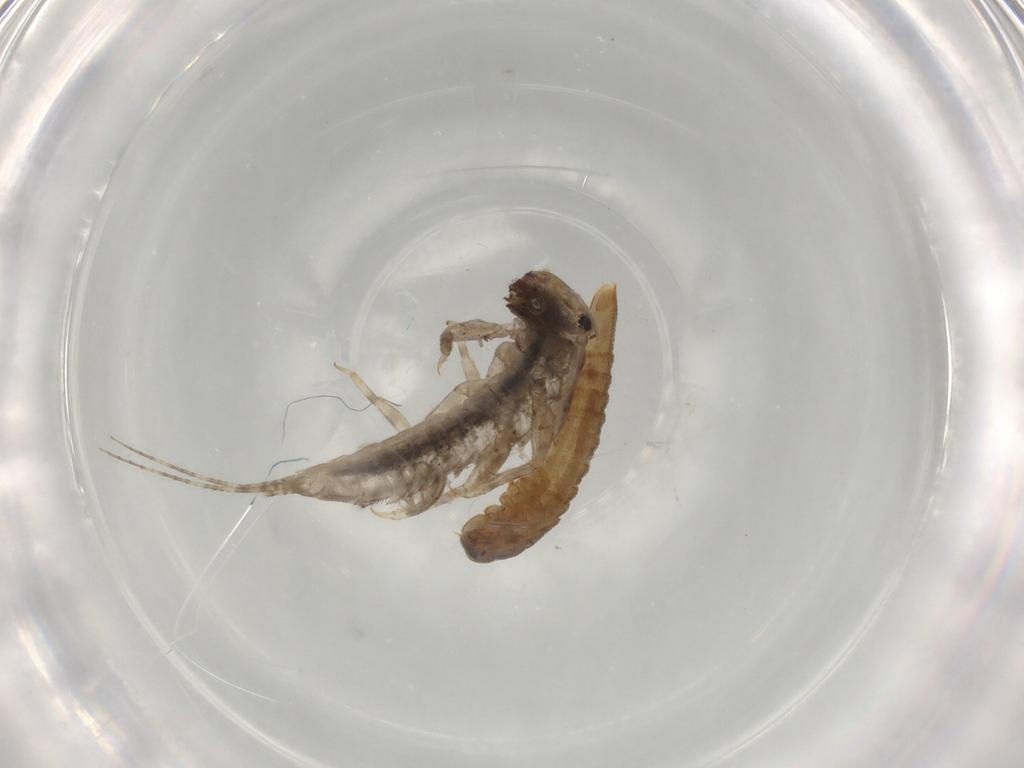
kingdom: Animalia
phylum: Arthropoda
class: Insecta
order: Ephemeroptera
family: Ephemerellidae
